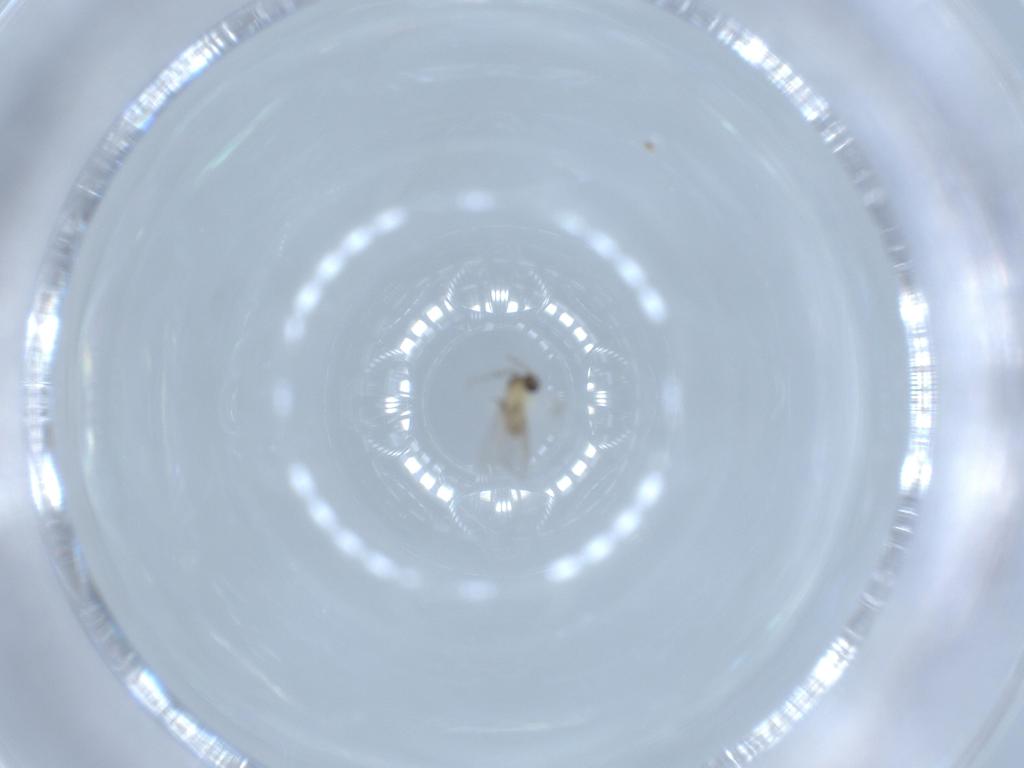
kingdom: Animalia
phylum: Arthropoda
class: Insecta
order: Diptera
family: Cecidomyiidae
